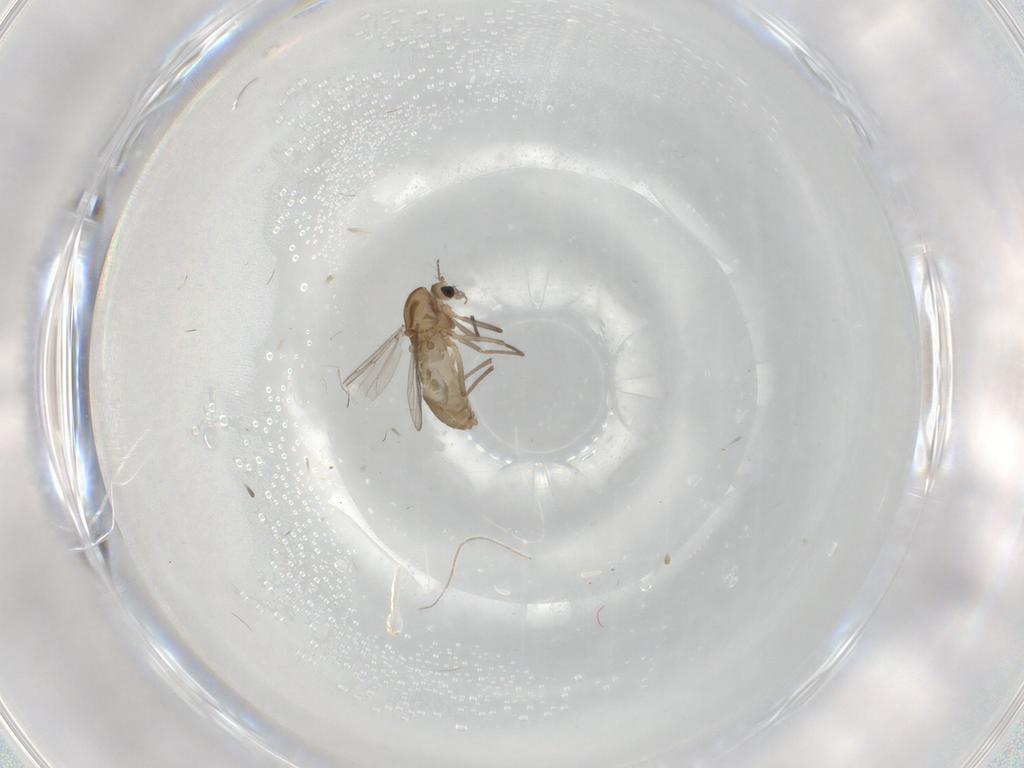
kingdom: Animalia
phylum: Arthropoda
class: Insecta
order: Diptera
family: Chironomidae
